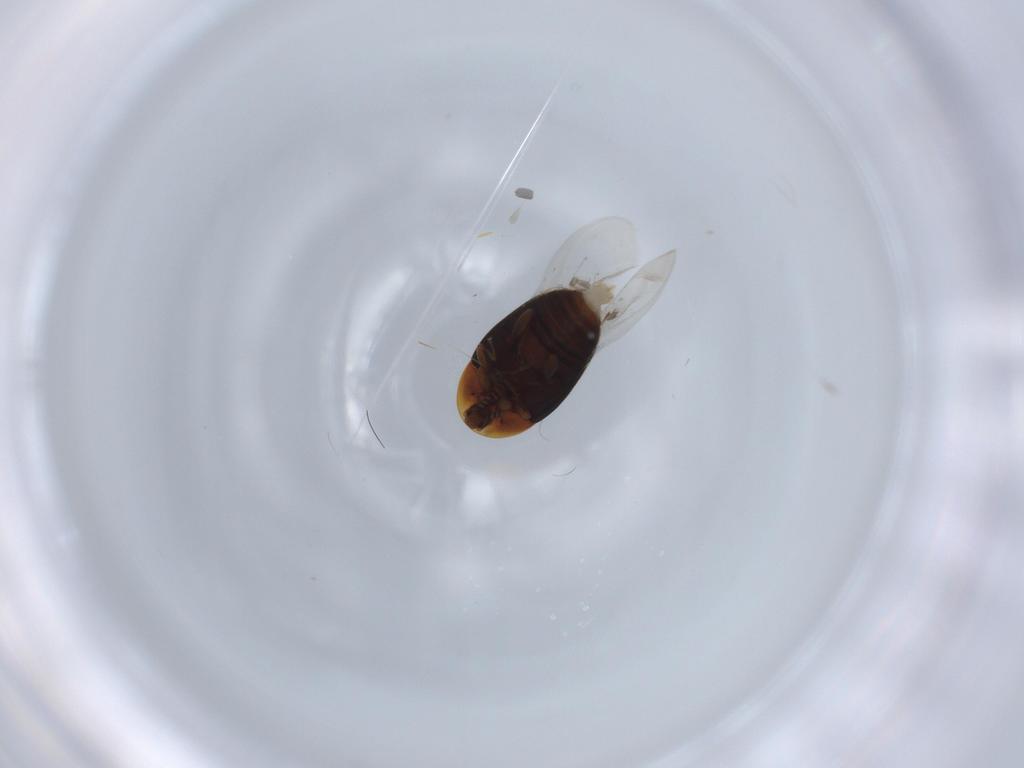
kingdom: Animalia
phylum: Arthropoda
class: Insecta
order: Coleoptera
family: Corylophidae
